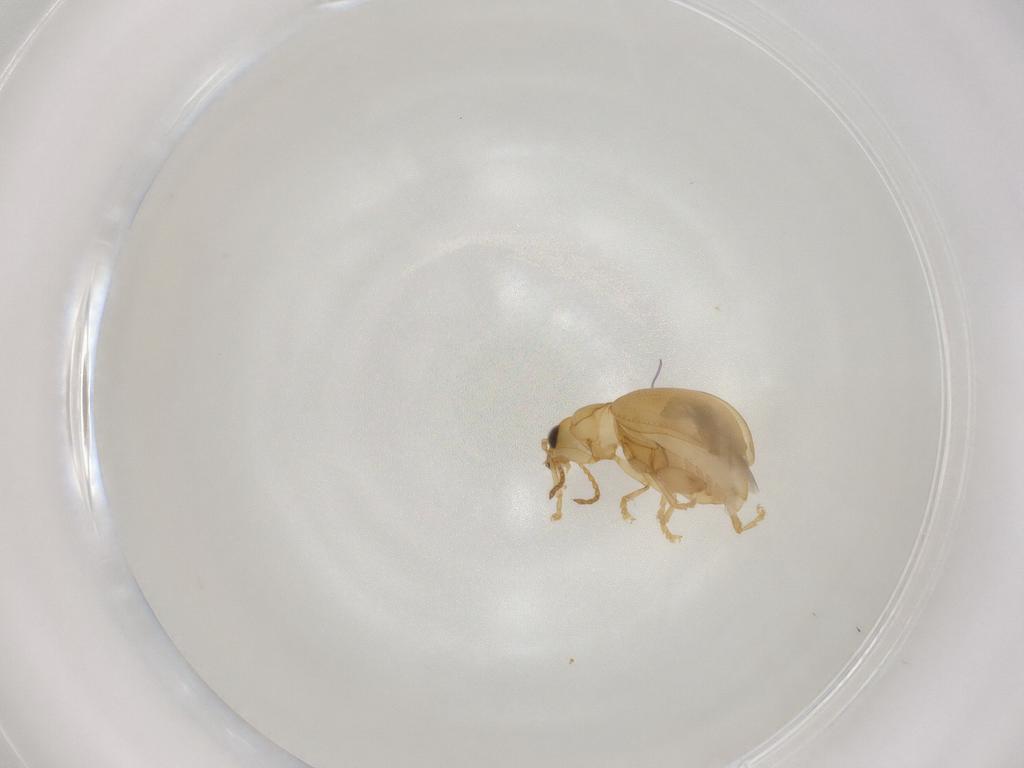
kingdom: Animalia
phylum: Arthropoda
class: Insecta
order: Coleoptera
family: Chrysomelidae
